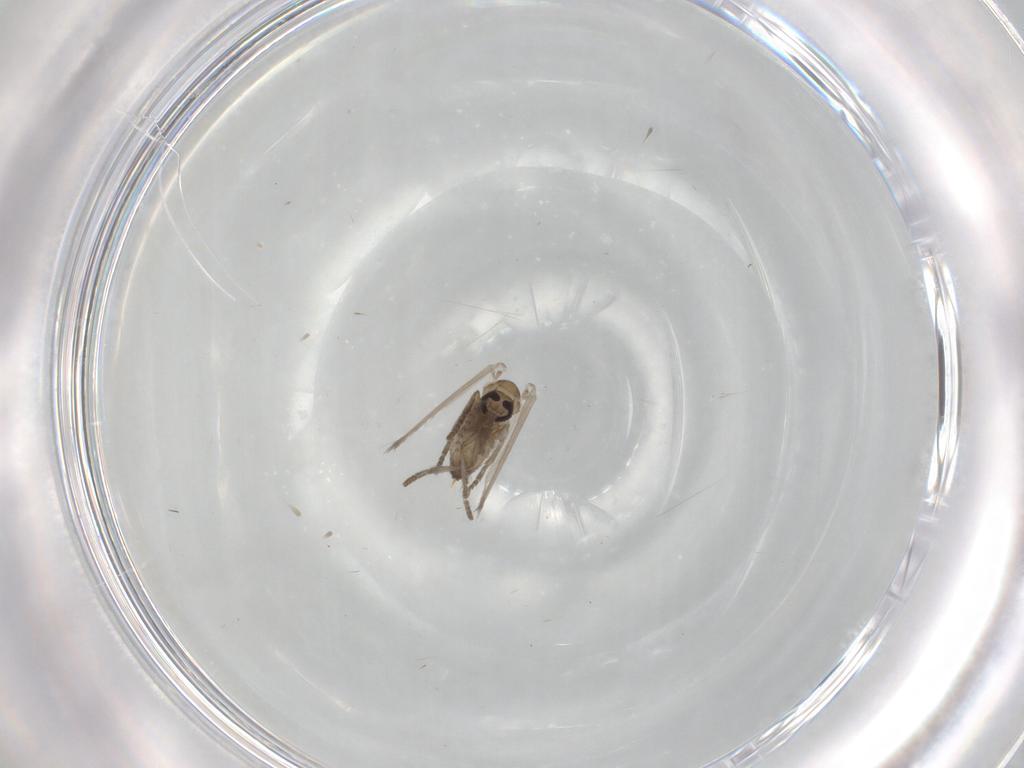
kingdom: Animalia
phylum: Arthropoda
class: Insecta
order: Diptera
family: Psychodidae
